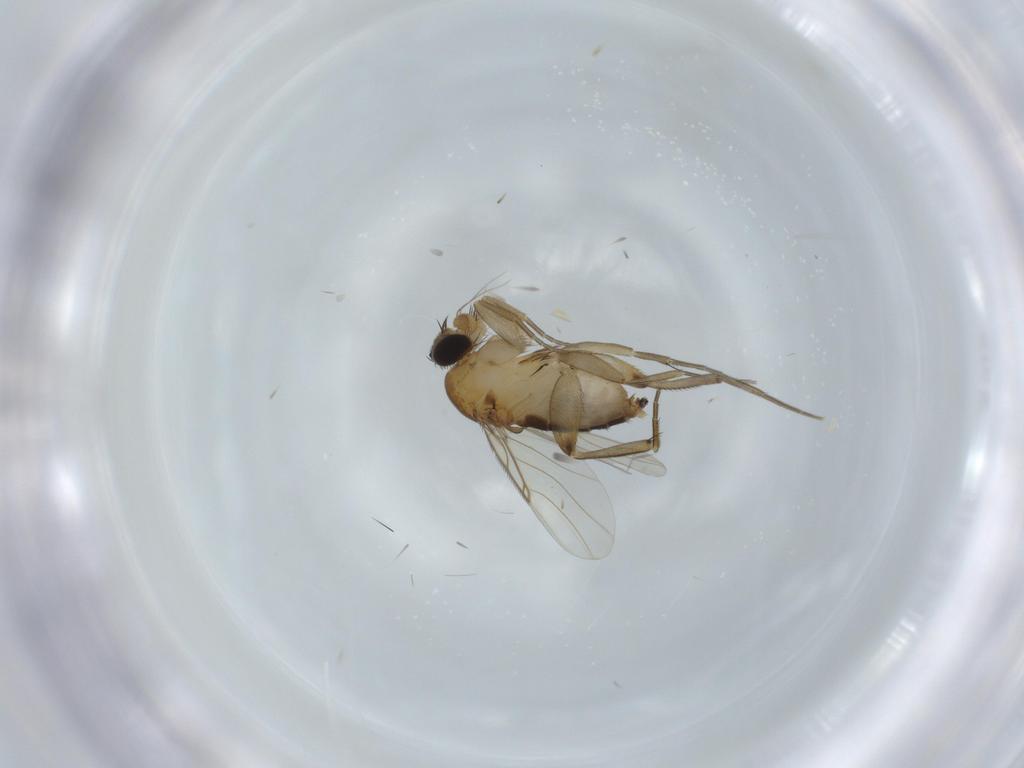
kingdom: Animalia
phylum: Arthropoda
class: Insecta
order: Diptera
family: Phoridae
